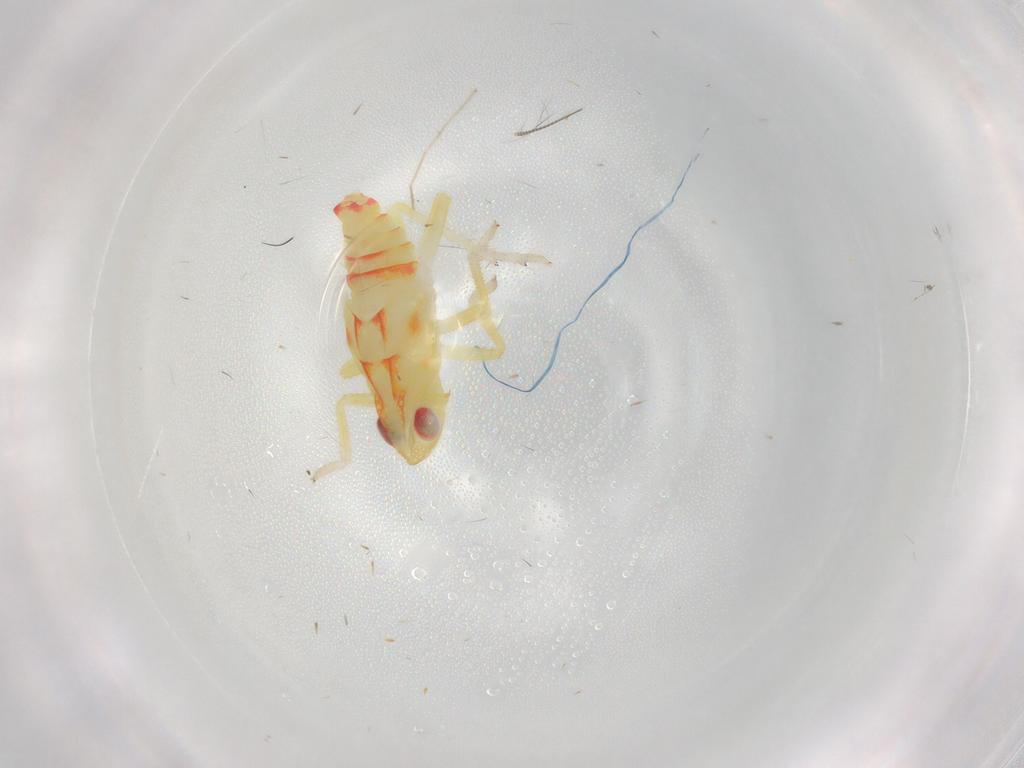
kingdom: Animalia
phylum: Arthropoda
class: Insecta
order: Hemiptera
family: Tropiduchidae
